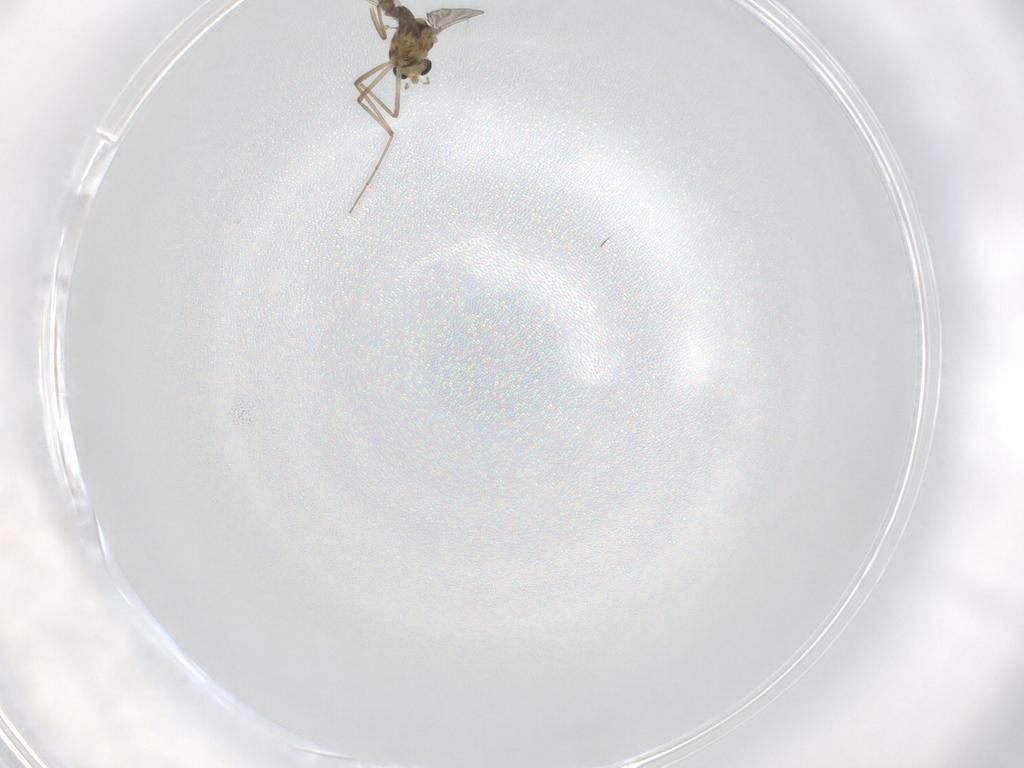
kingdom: Animalia
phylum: Arthropoda
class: Insecta
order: Diptera
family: Chironomidae
